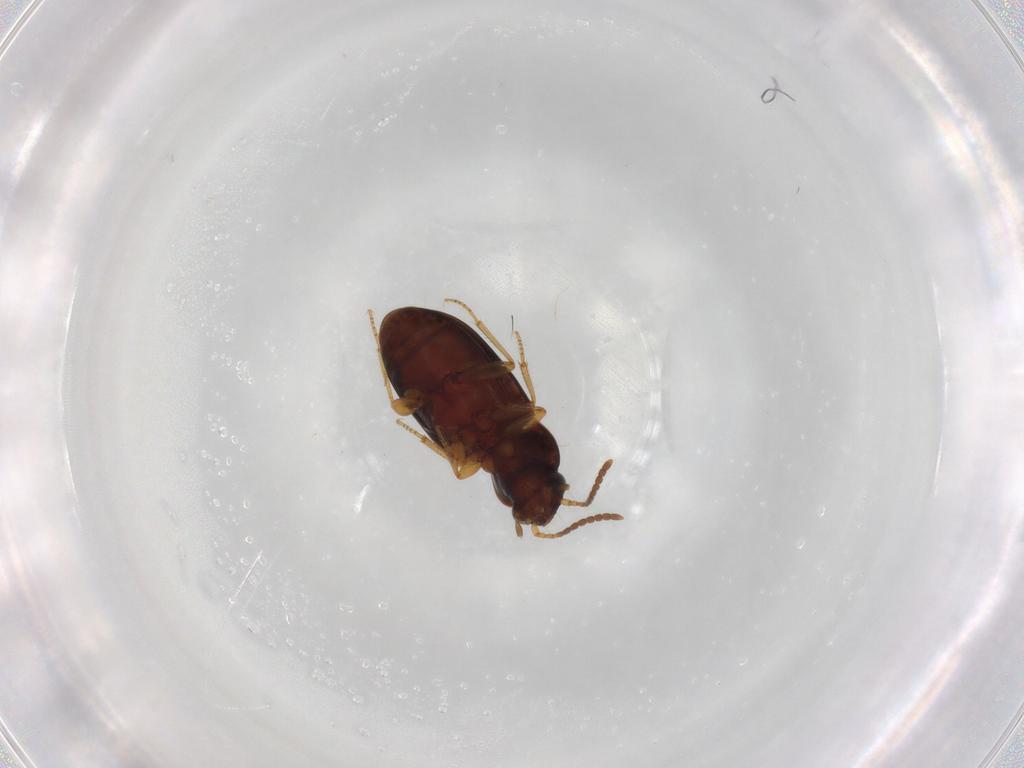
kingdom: Animalia
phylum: Arthropoda
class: Insecta
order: Coleoptera
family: Carabidae
